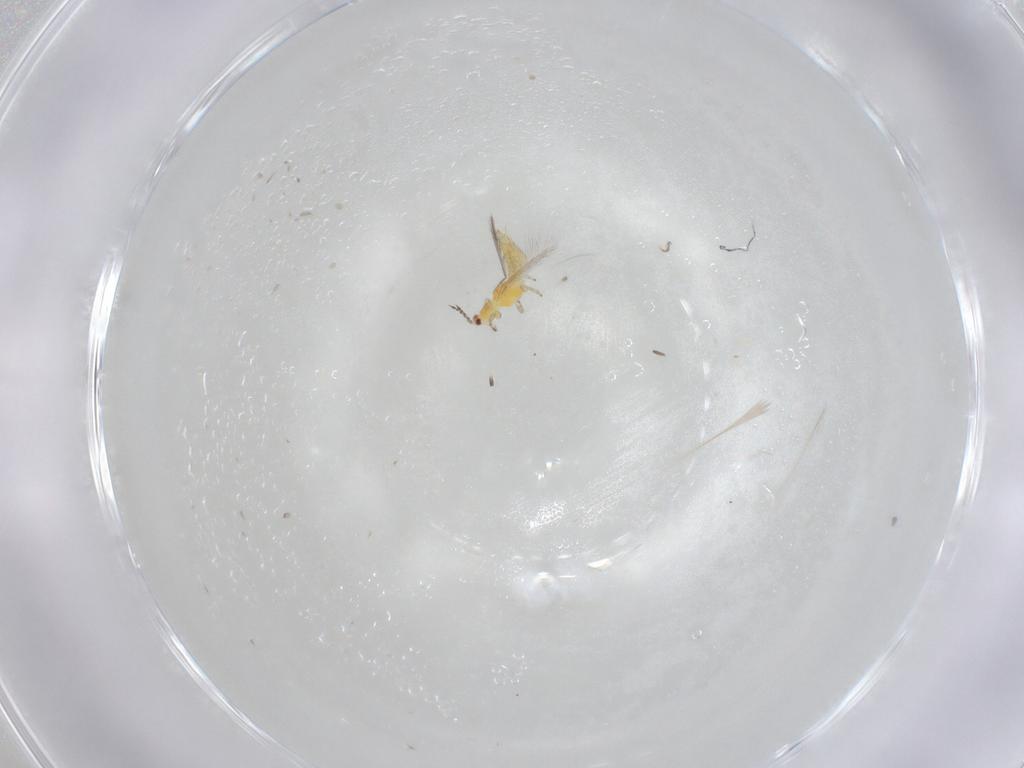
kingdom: Animalia
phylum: Arthropoda
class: Insecta
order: Thysanoptera
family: Thripidae
